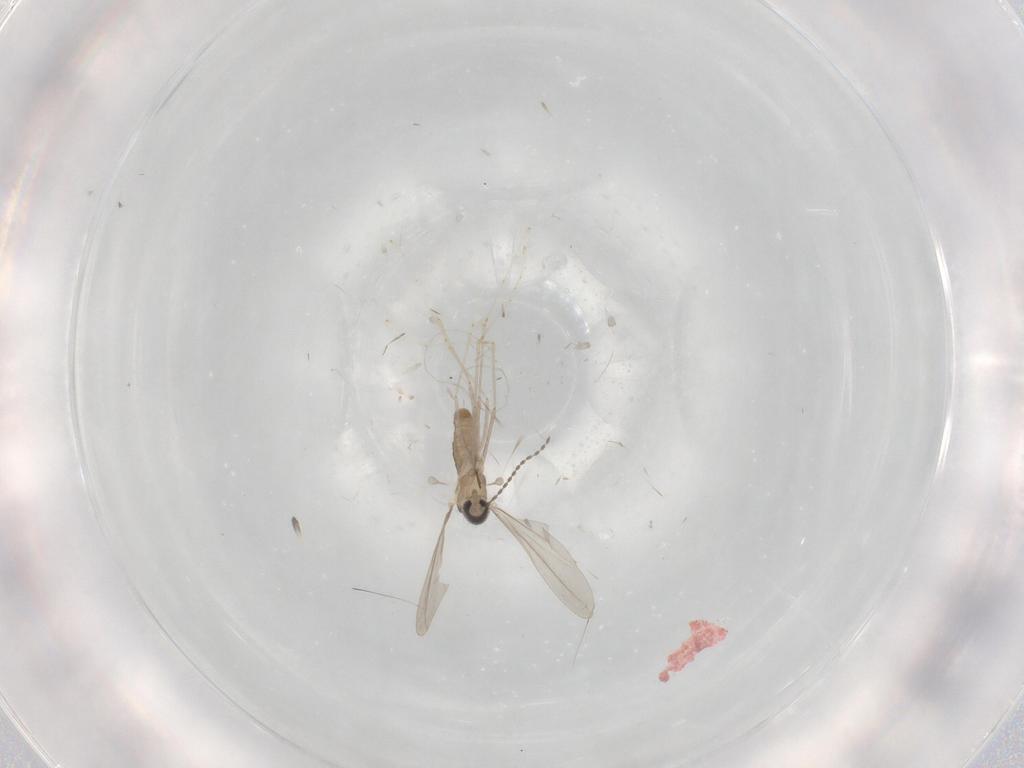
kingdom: Animalia
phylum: Arthropoda
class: Insecta
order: Diptera
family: Cecidomyiidae
